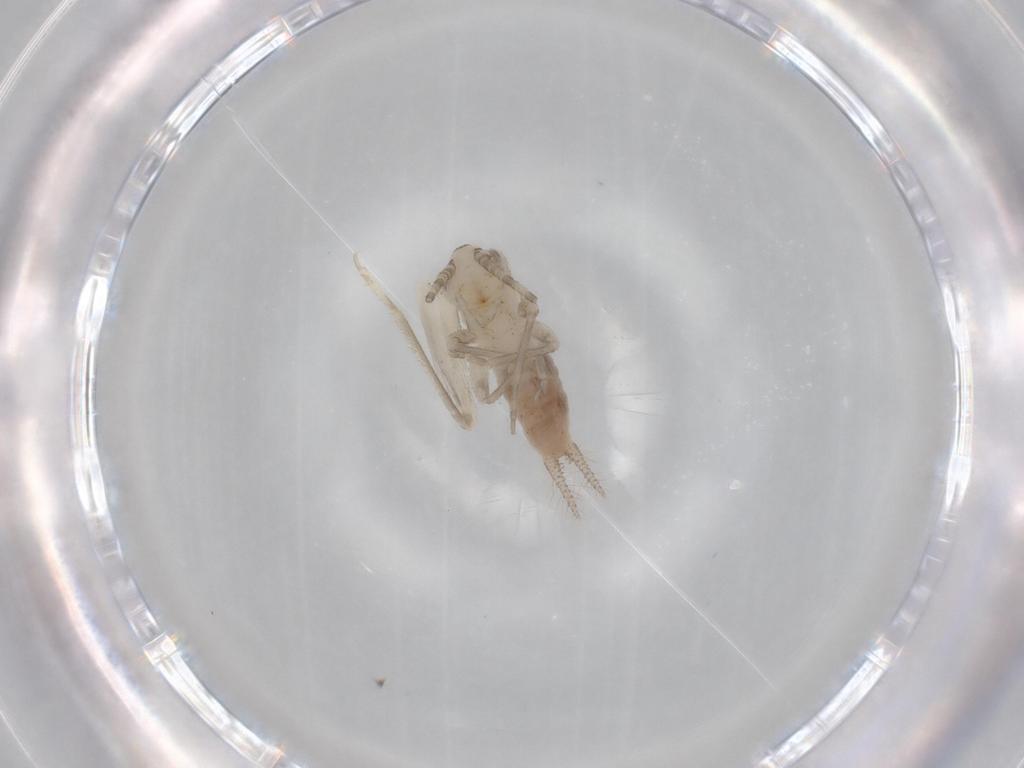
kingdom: Animalia
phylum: Arthropoda
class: Insecta
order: Orthoptera
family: Trigonidiidae
